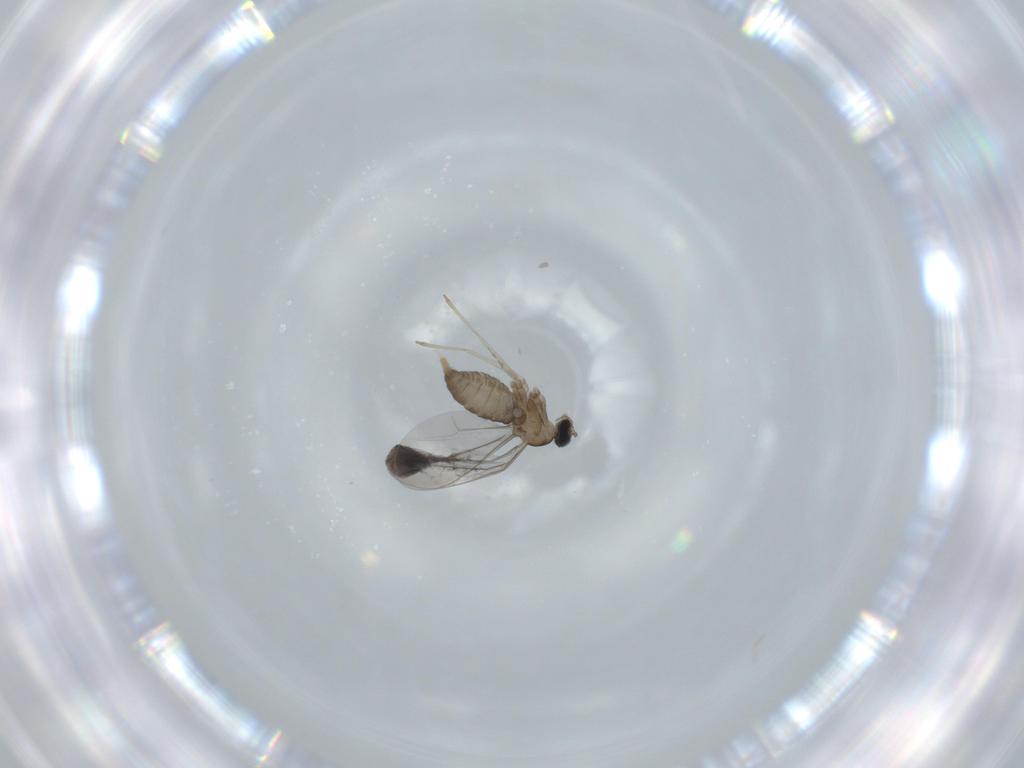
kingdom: Animalia
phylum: Arthropoda
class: Insecta
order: Diptera
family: Cecidomyiidae
